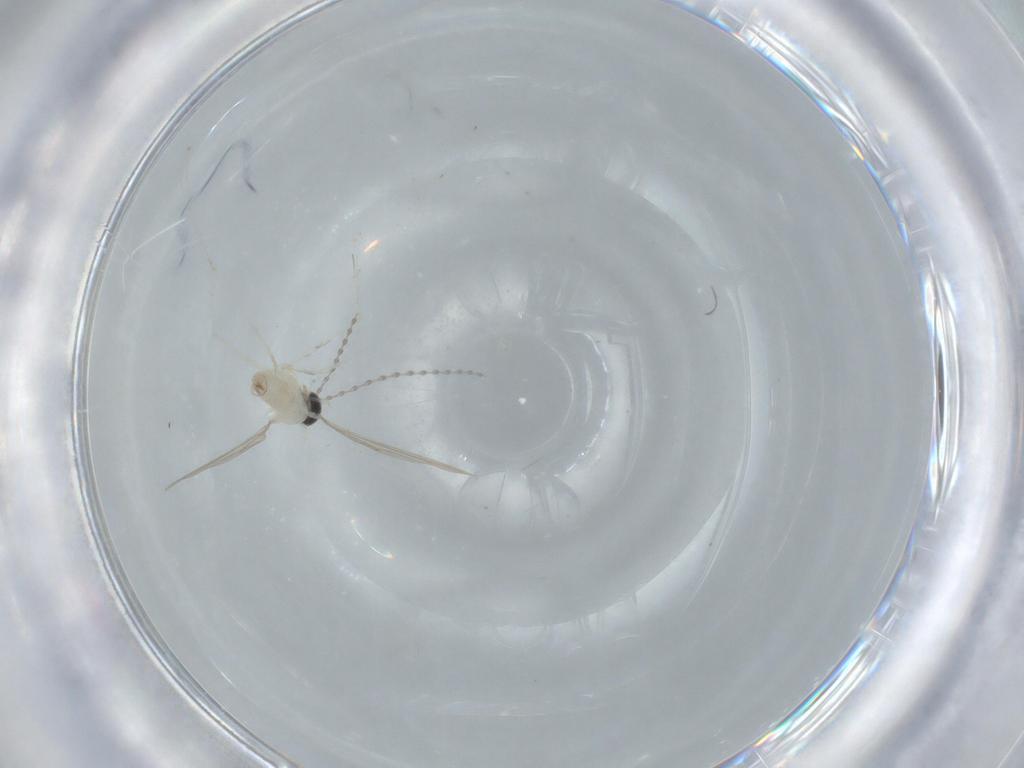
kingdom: Animalia
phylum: Arthropoda
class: Insecta
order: Diptera
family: Cecidomyiidae
